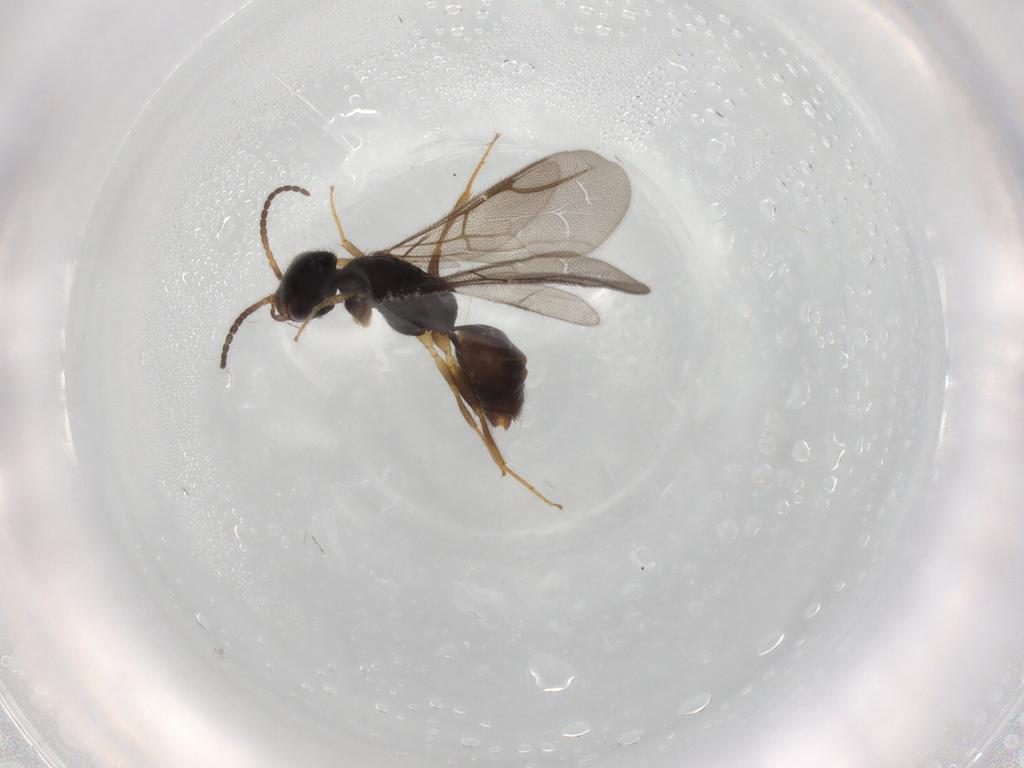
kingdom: Animalia
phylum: Arthropoda
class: Insecta
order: Hymenoptera
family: Bethylidae
